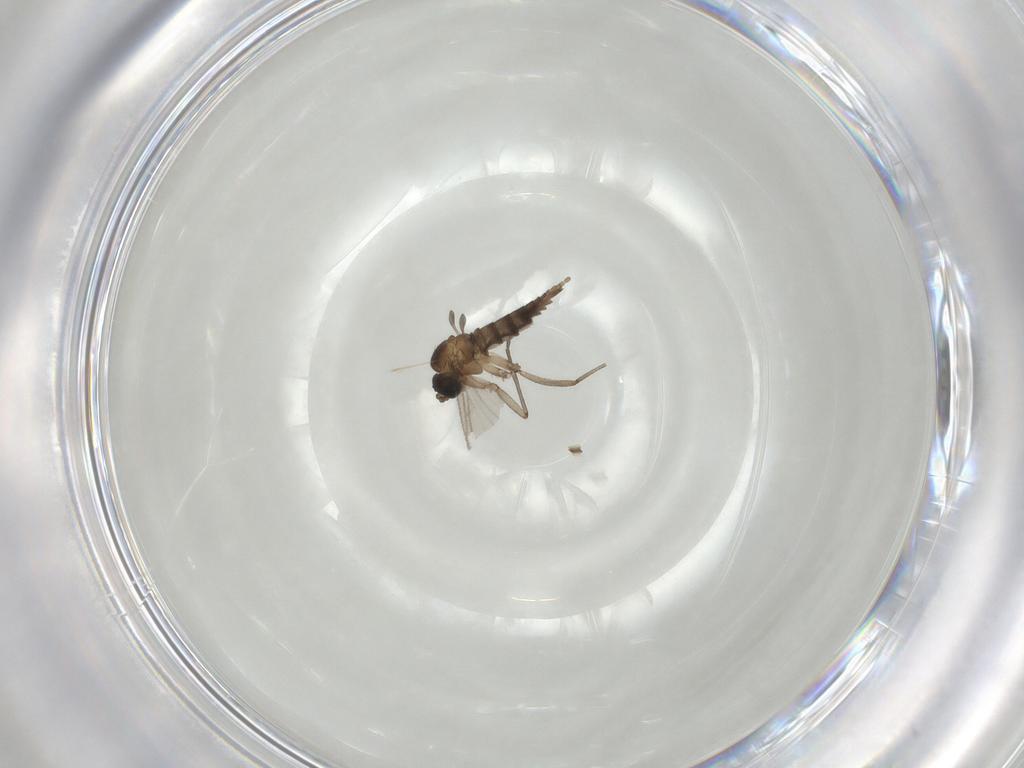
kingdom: Animalia
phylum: Arthropoda
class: Insecta
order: Diptera
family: Sciaridae
